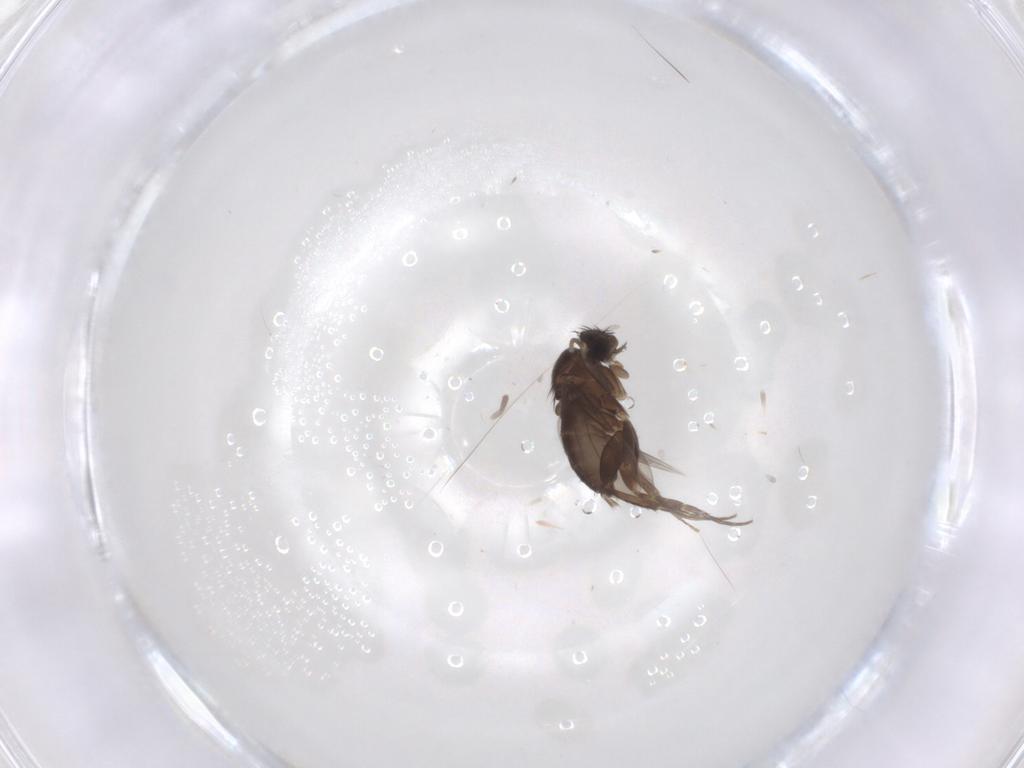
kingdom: Animalia
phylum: Arthropoda
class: Insecta
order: Diptera
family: Phoridae
